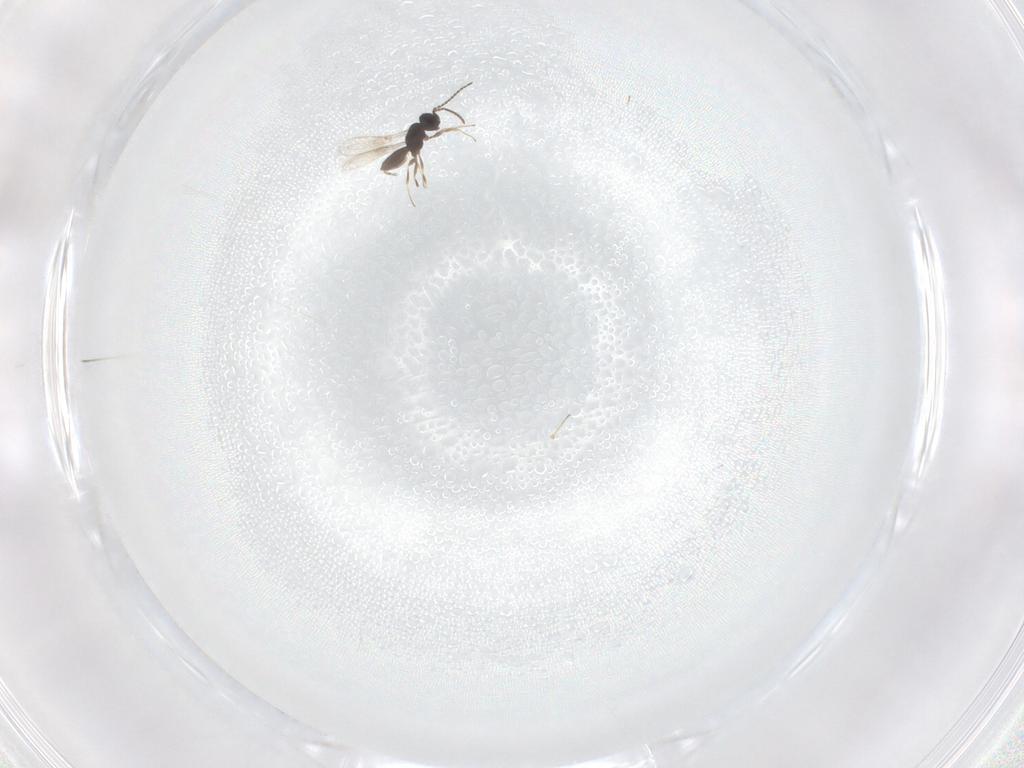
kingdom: Animalia
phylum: Arthropoda
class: Insecta
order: Hymenoptera
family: Scelionidae
